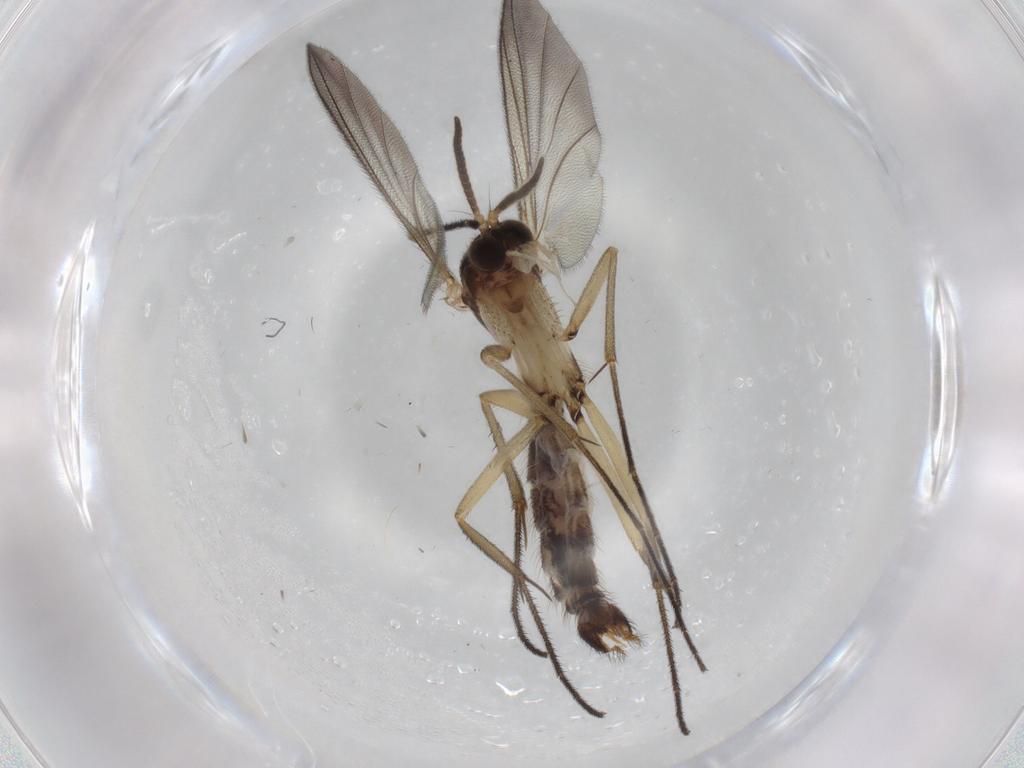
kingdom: Animalia
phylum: Arthropoda
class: Insecta
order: Diptera
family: Mycetophilidae
